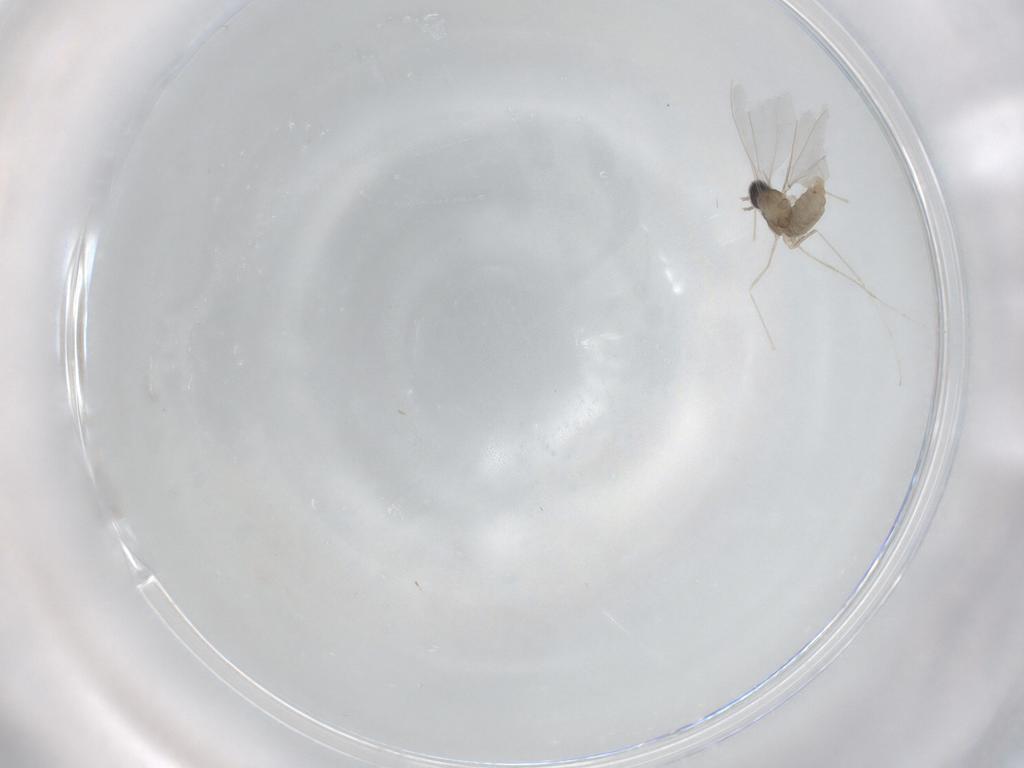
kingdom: Animalia
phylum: Arthropoda
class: Insecta
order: Diptera
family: Cecidomyiidae
